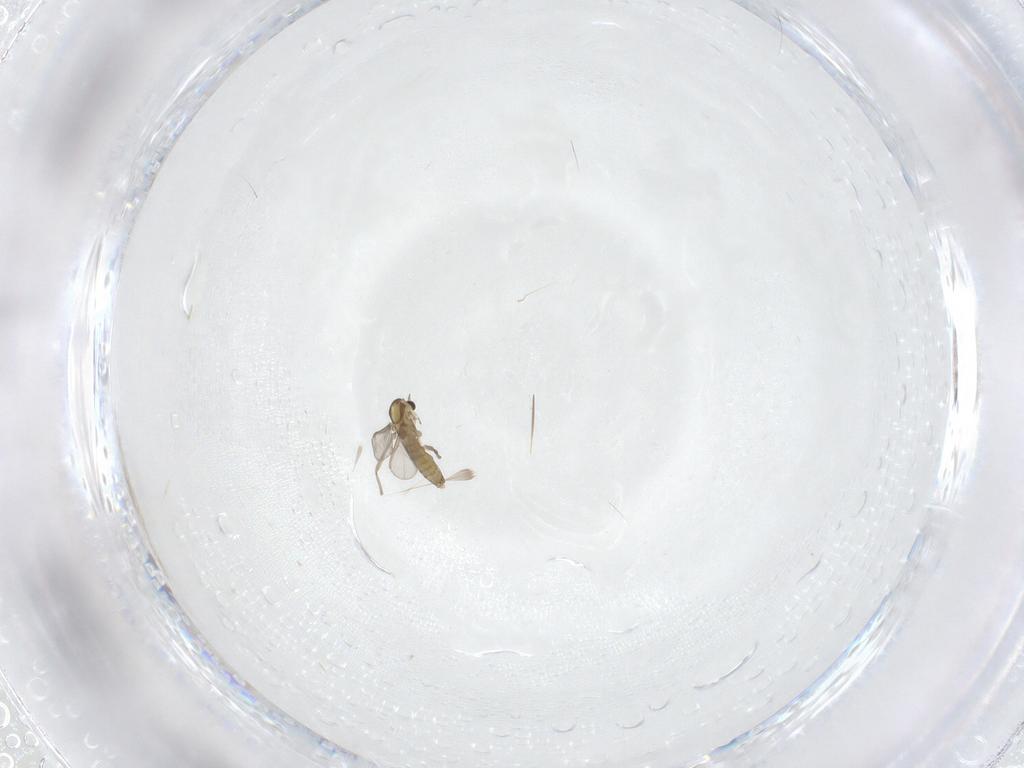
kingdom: Animalia
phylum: Arthropoda
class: Insecta
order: Diptera
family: Chironomidae
